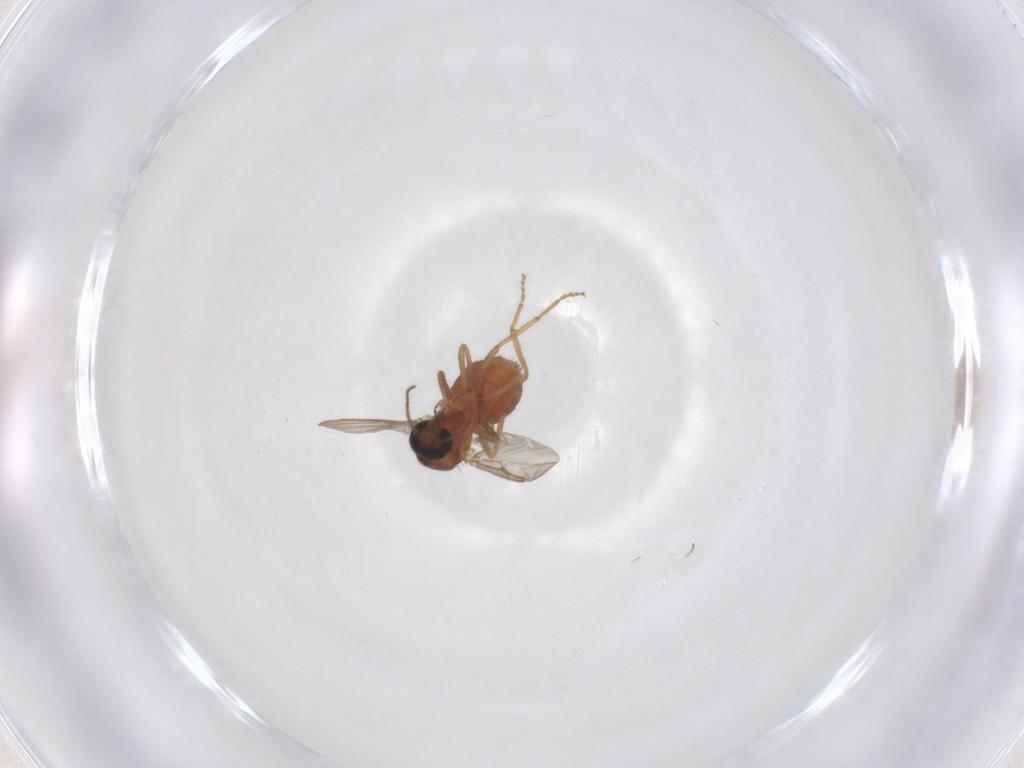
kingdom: Animalia
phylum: Arthropoda
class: Insecta
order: Diptera
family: Ceratopogonidae
